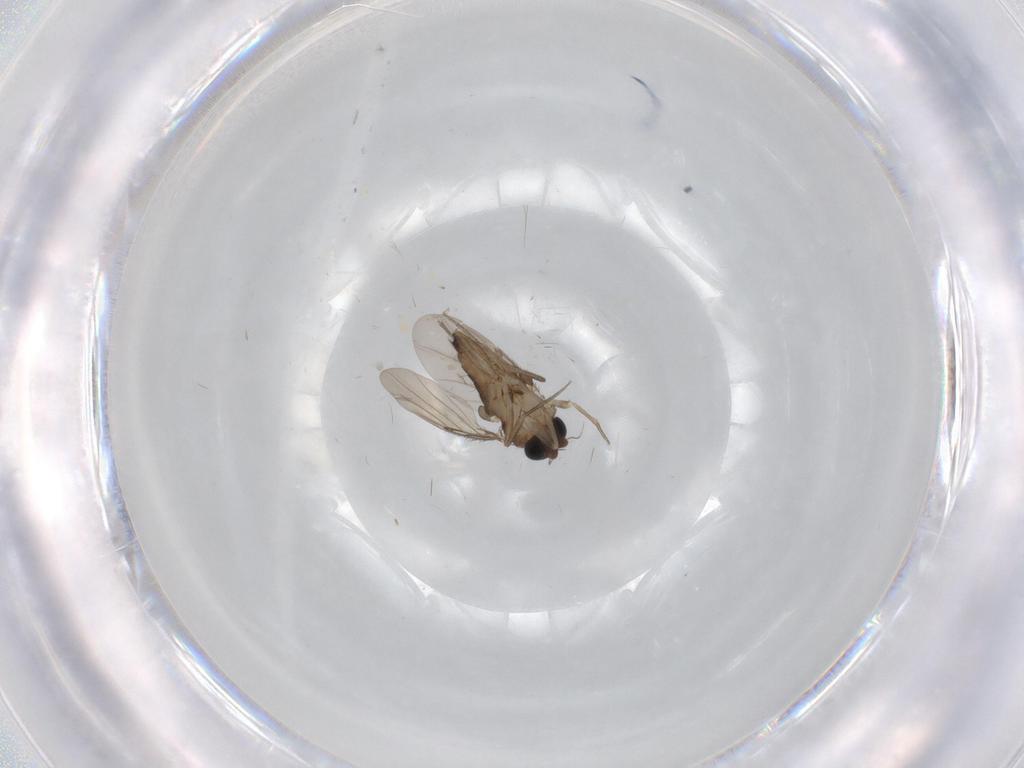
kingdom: Animalia
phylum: Arthropoda
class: Insecta
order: Diptera
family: Phoridae
